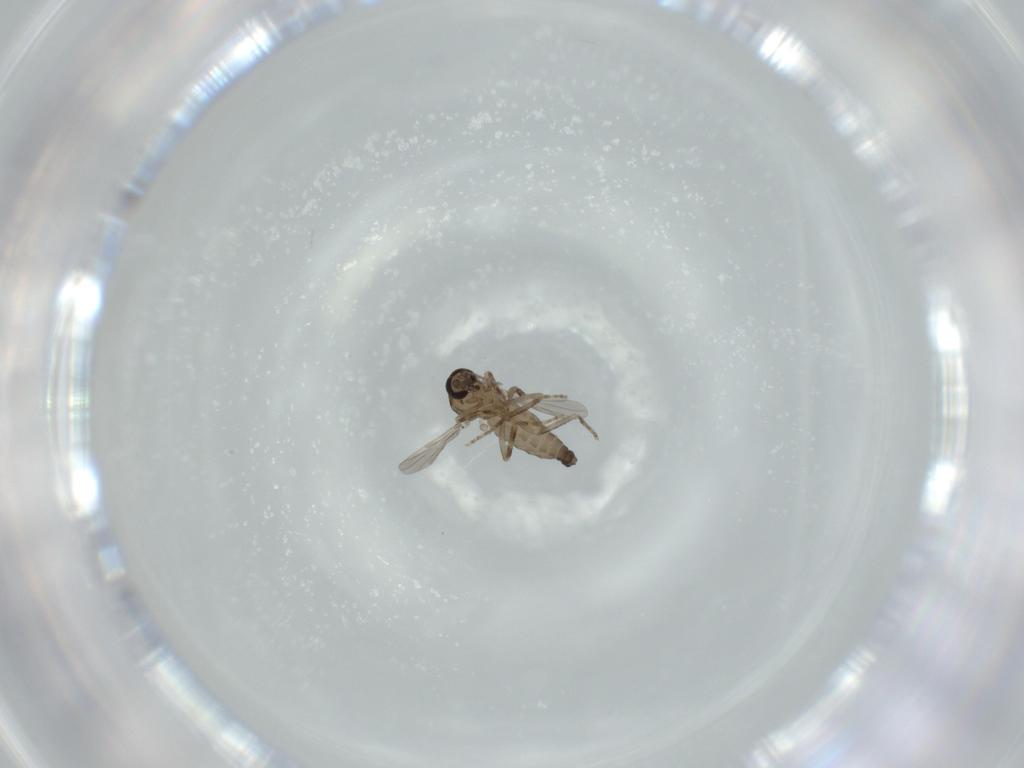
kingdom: Animalia
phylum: Arthropoda
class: Insecta
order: Diptera
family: Ceratopogonidae
